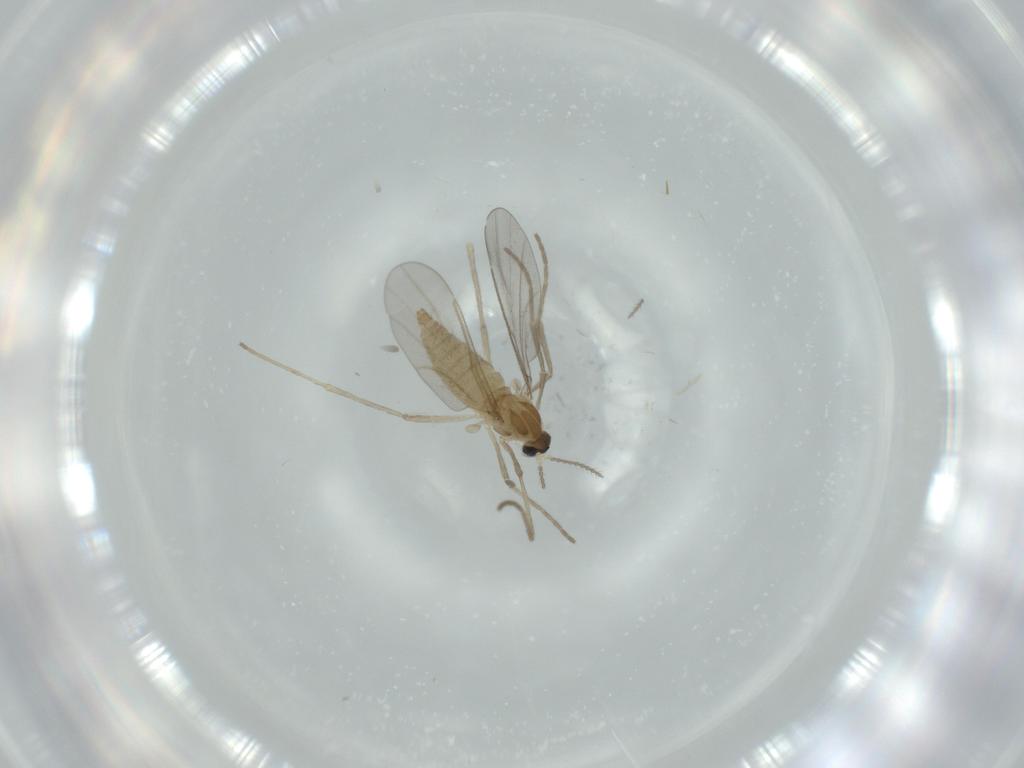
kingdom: Animalia
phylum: Arthropoda
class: Insecta
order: Diptera
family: Cecidomyiidae
